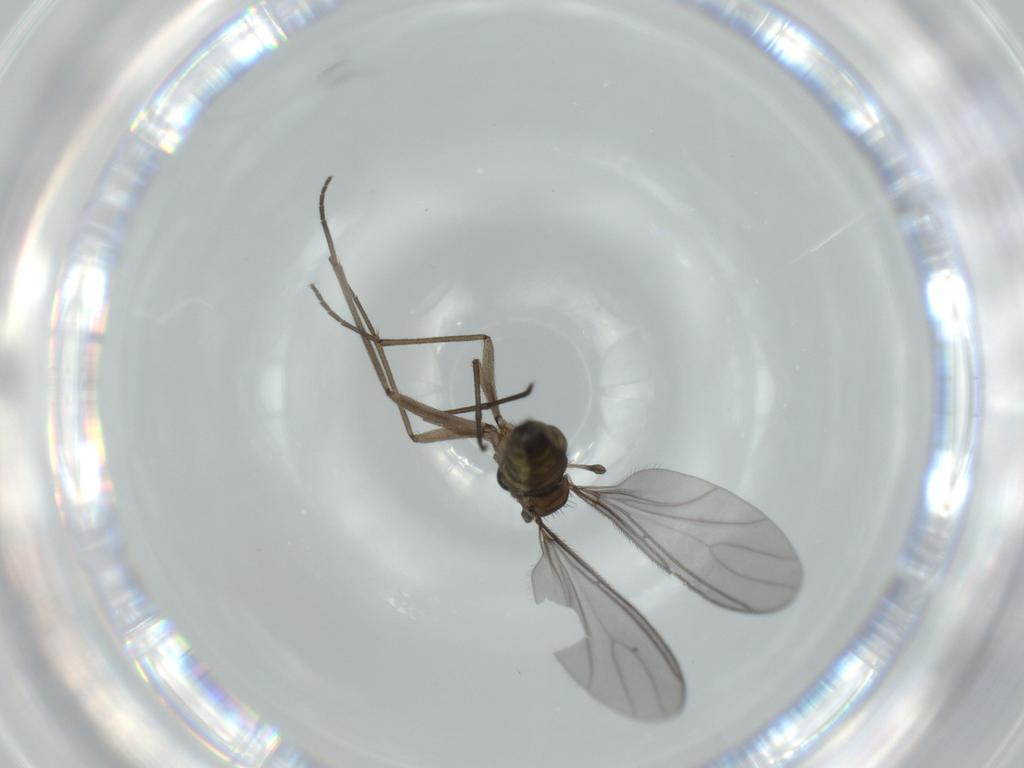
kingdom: Animalia
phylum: Arthropoda
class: Insecta
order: Diptera
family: Sciaridae
